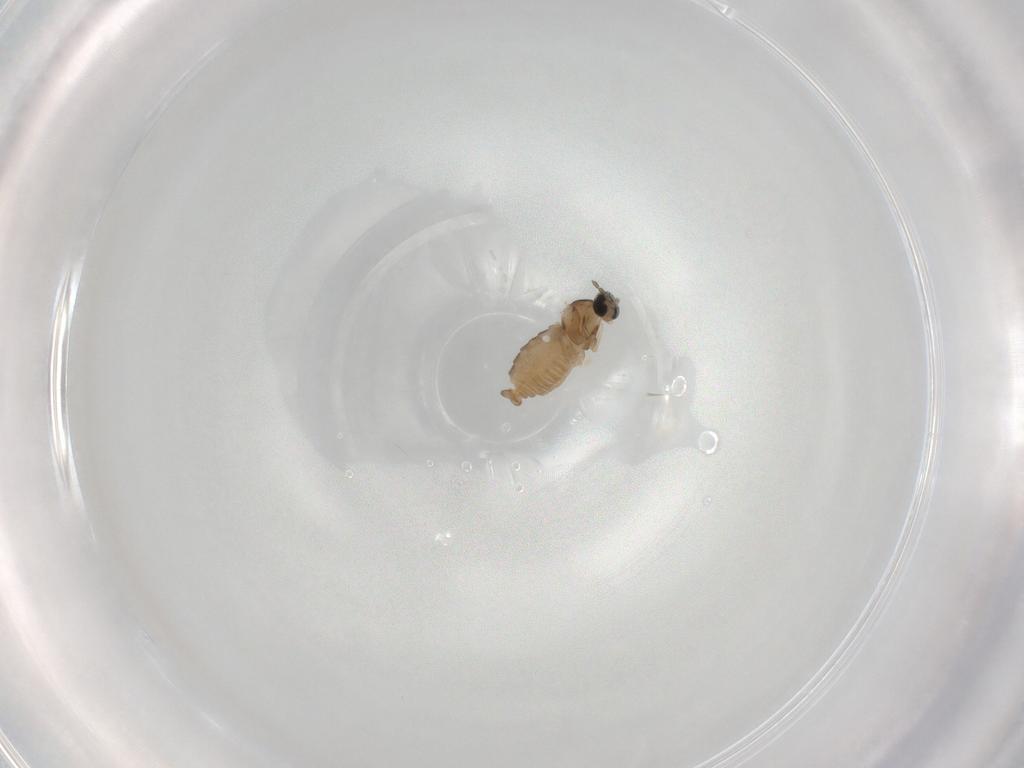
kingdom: Animalia
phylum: Arthropoda
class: Insecta
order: Diptera
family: Cecidomyiidae
